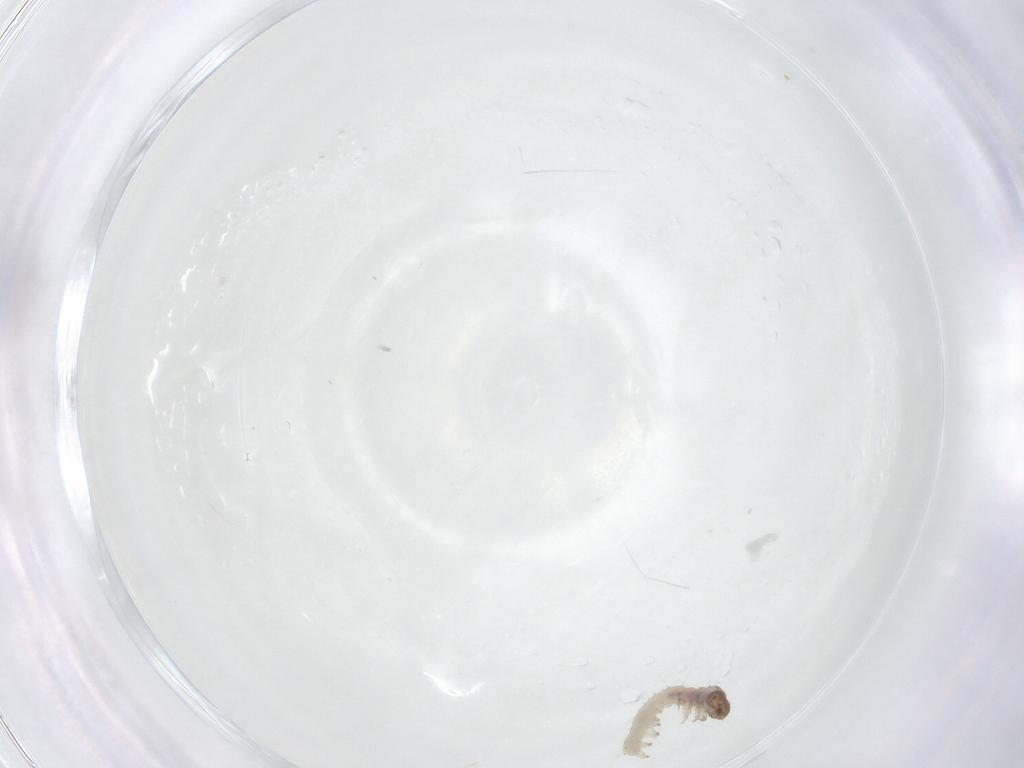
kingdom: Animalia
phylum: Arthropoda
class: Insecta
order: Lepidoptera
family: Erebidae
